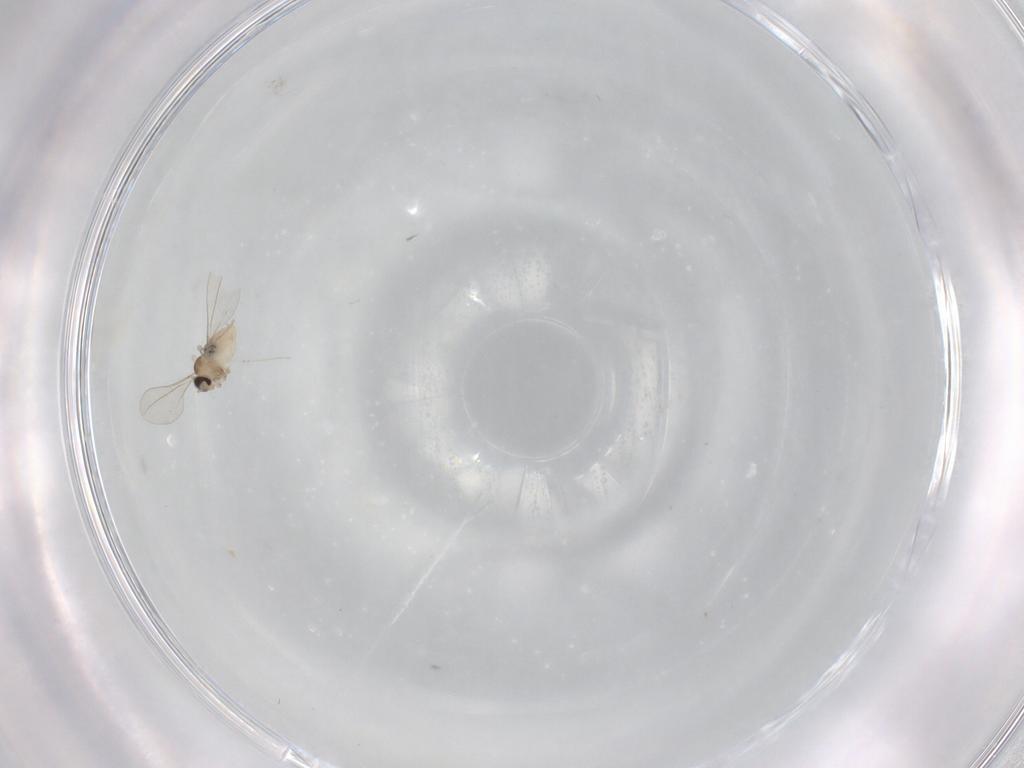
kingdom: Animalia
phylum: Arthropoda
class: Insecta
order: Diptera
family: Cecidomyiidae
